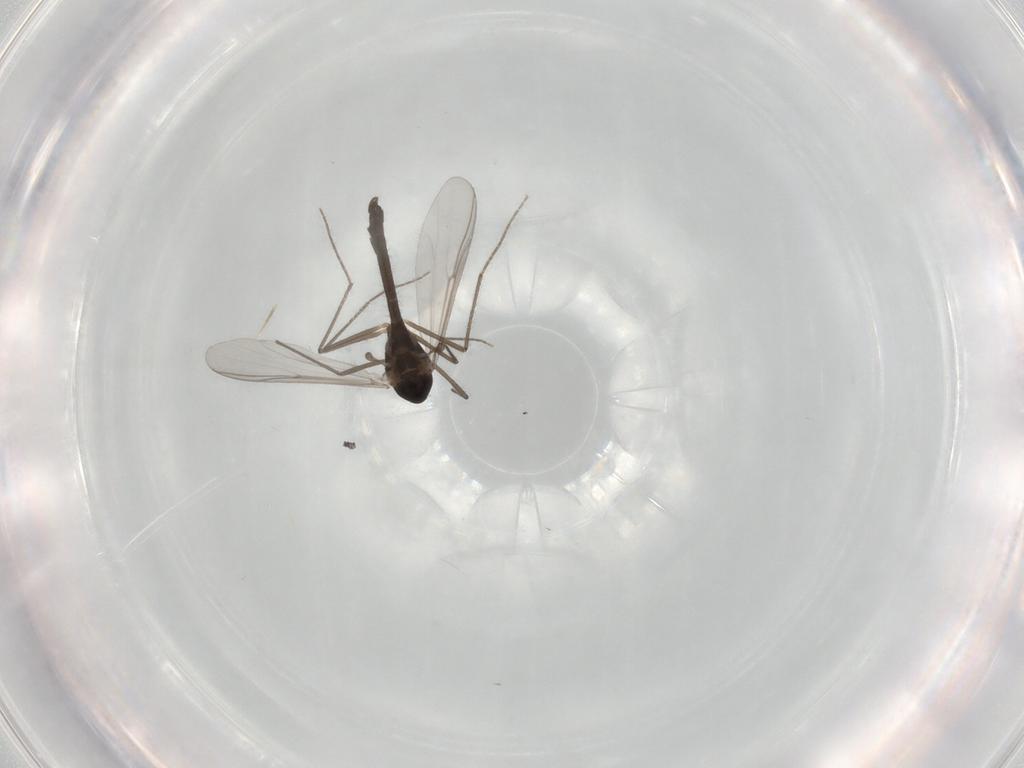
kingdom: Animalia
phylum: Arthropoda
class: Insecta
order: Diptera
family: Chironomidae
